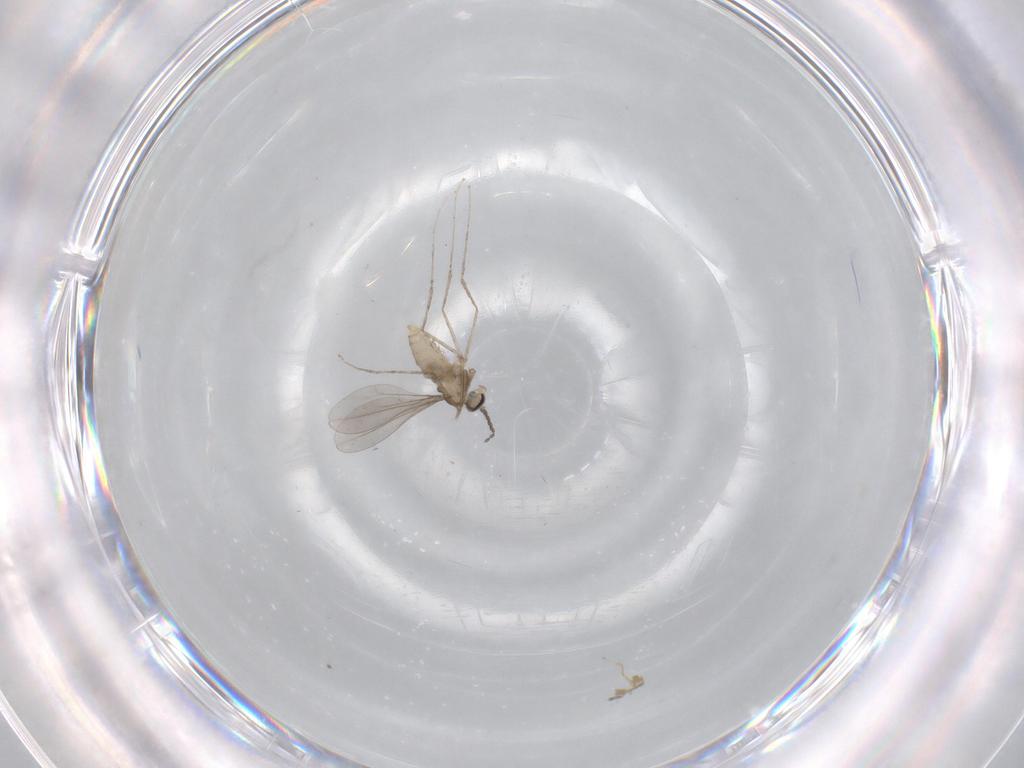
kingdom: Animalia
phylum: Arthropoda
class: Insecta
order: Diptera
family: Chironomidae
